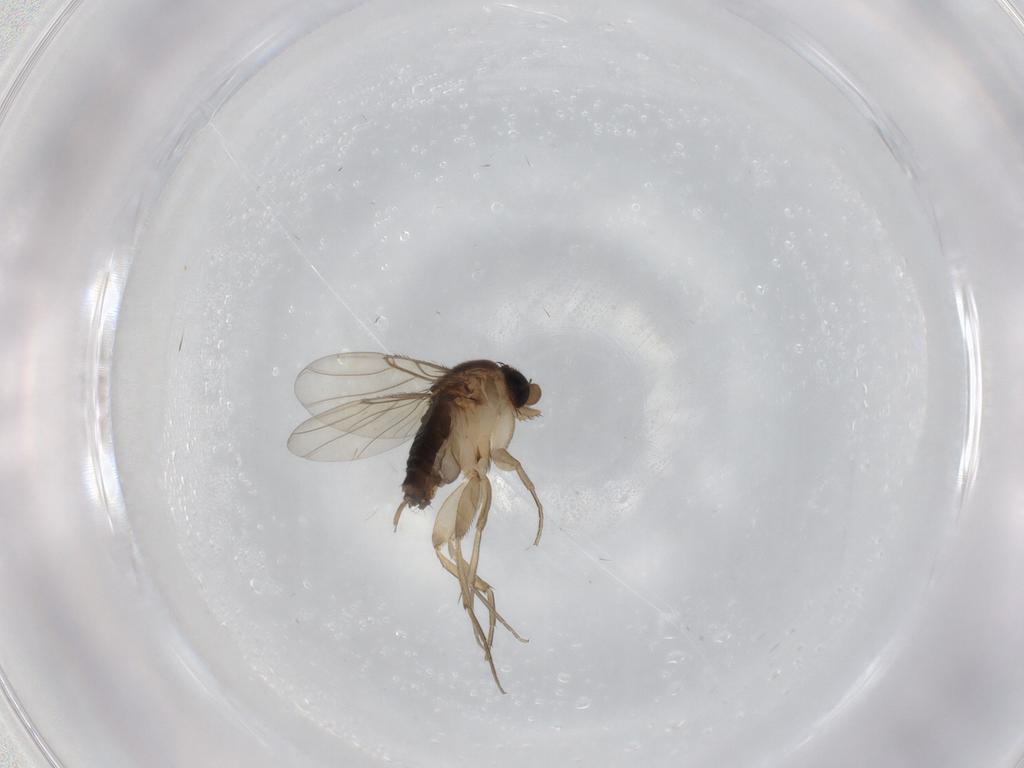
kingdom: Animalia
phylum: Arthropoda
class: Insecta
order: Diptera
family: Phoridae
